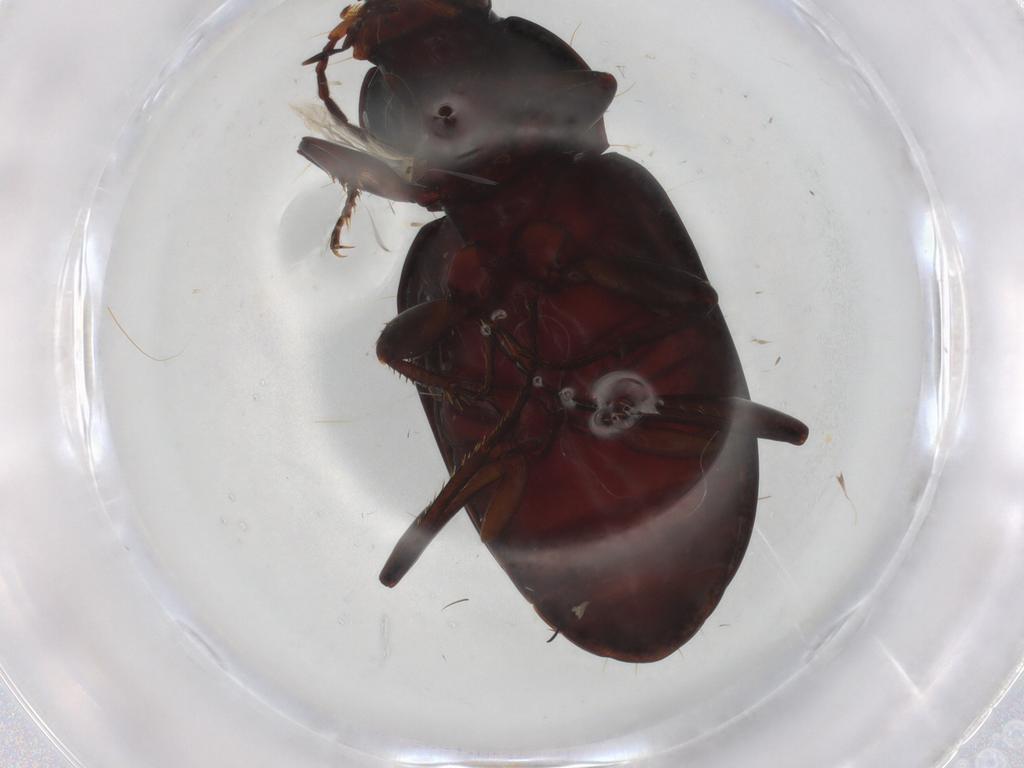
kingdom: Animalia
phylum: Arthropoda
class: Insecta
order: Coleoptera
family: Carabidae
